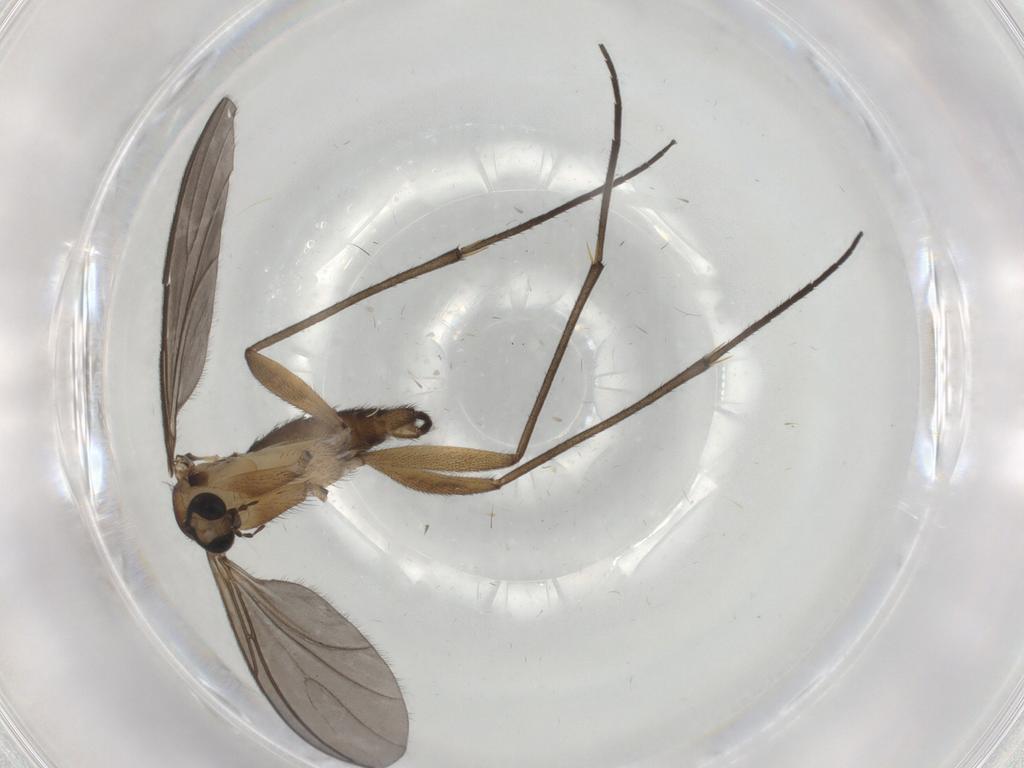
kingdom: Animalia
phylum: Arthropoda
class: Insecta
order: Diptera
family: Sciaridae
